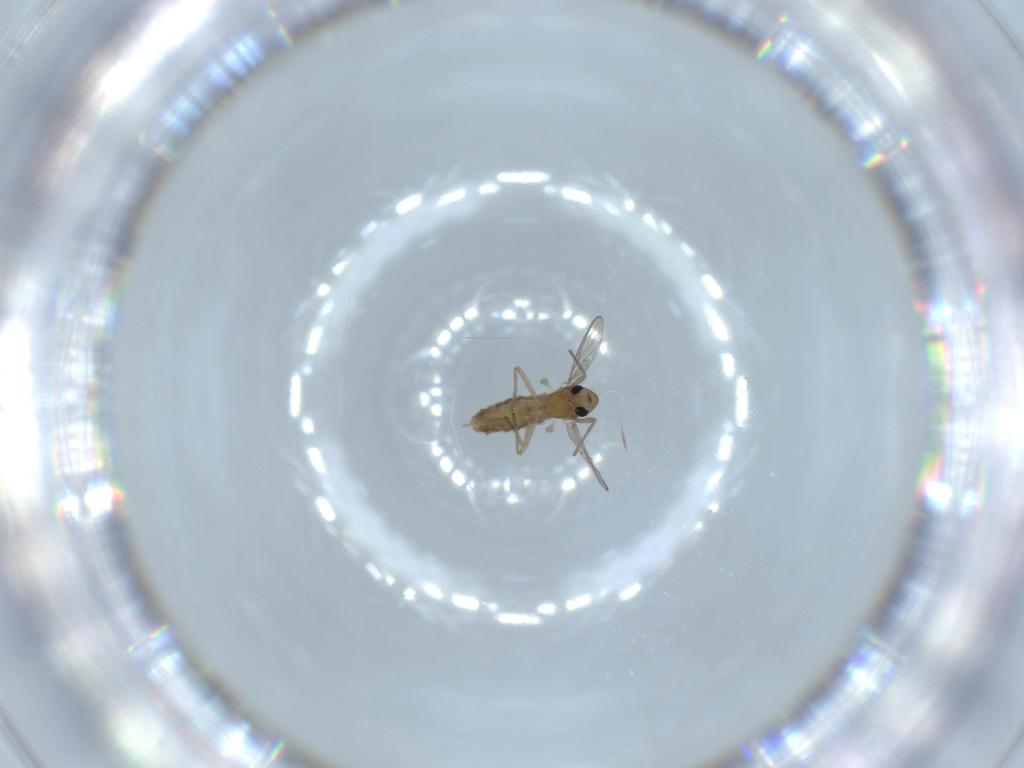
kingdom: Animalia
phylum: Arthropoda
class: Insecta
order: Diptera
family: Chironomidae
